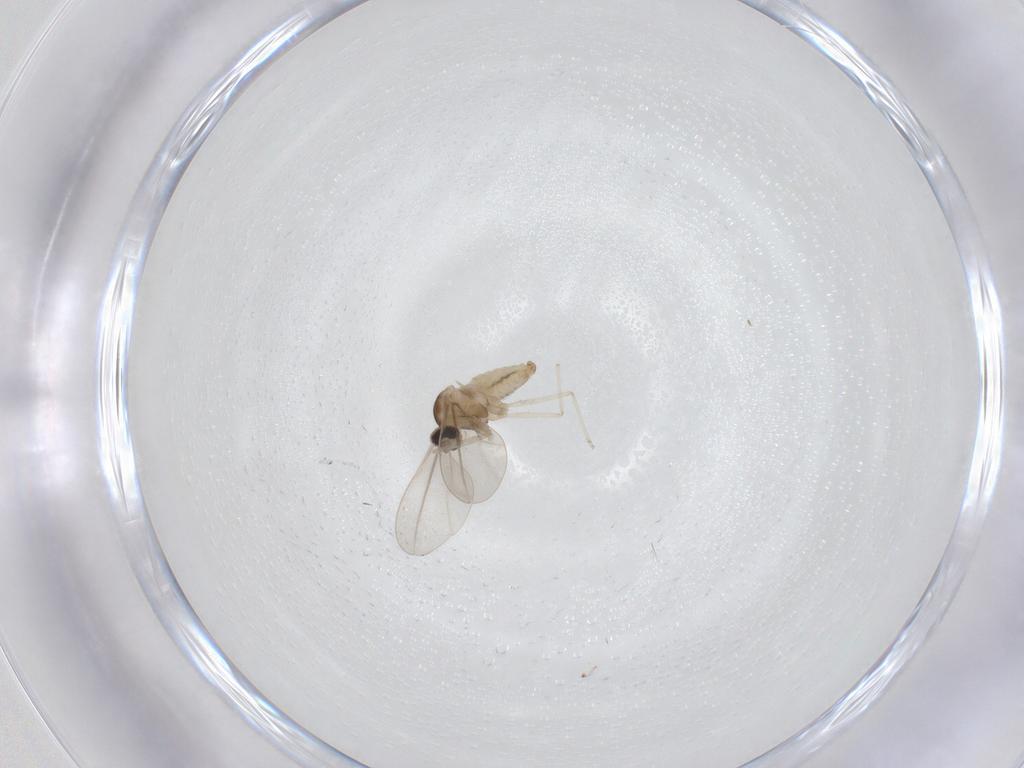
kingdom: Animalia
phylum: Arthropoda
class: Insecta
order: Diptera
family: Cecidomyiidae
